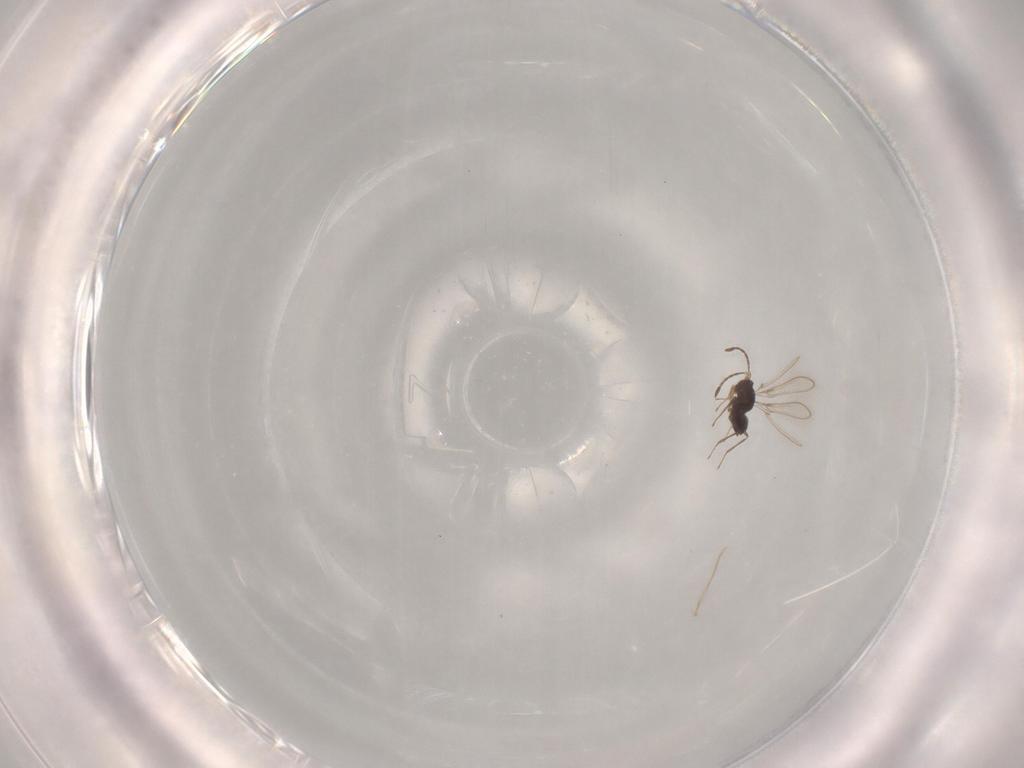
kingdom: Animalia
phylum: Arthropoda
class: Insecta
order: Hymenoptera
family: Mymaridae
